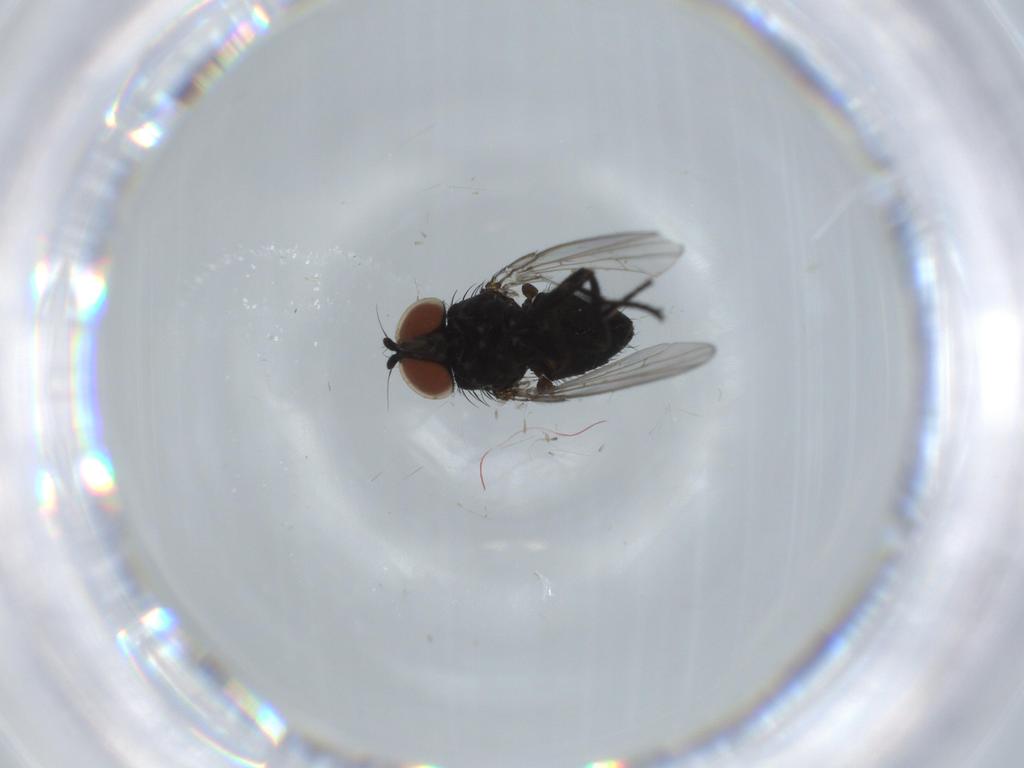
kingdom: Animalia
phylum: Arthropoda
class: Insecta
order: Diptera
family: Milichiidae
